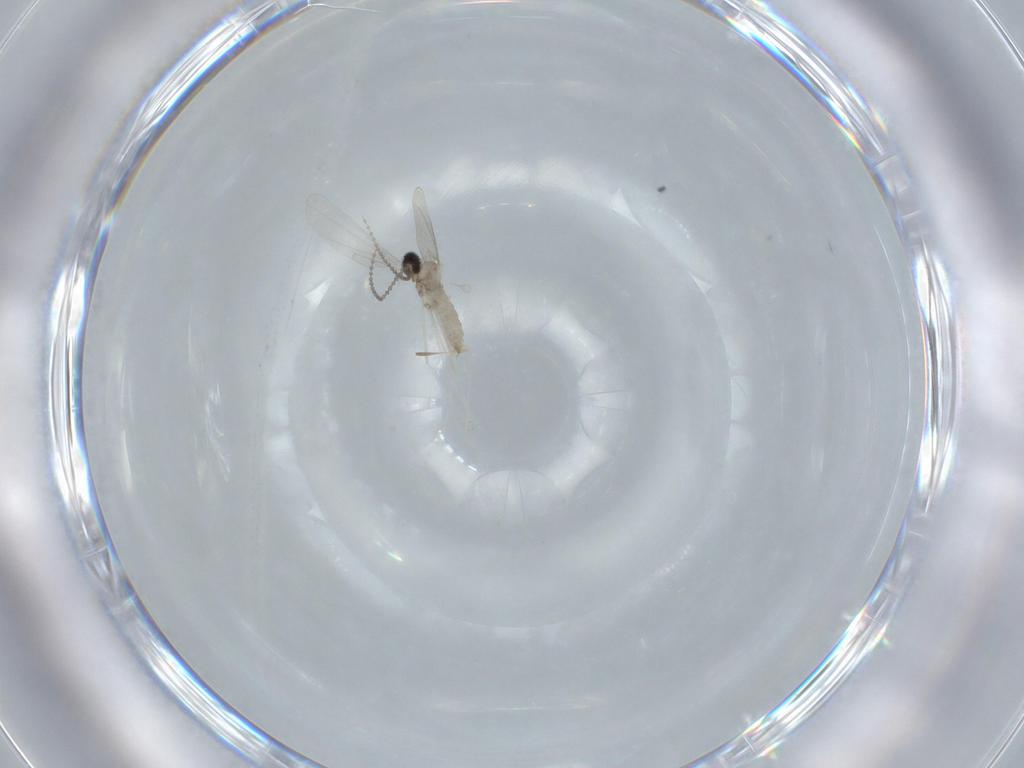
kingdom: Animalia
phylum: Arthropoda
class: Insecta
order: Diptera
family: Cecidomyiidae
